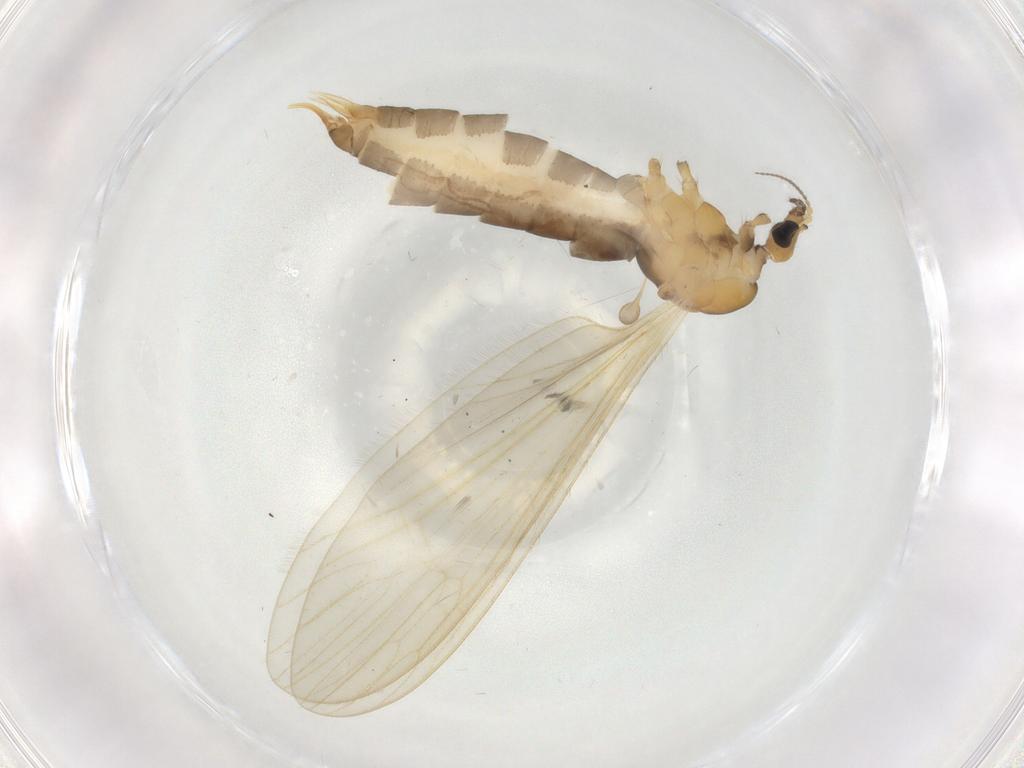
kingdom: Animalia
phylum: Arthropoda
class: Insecta
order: Diptera
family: Limoniidae
